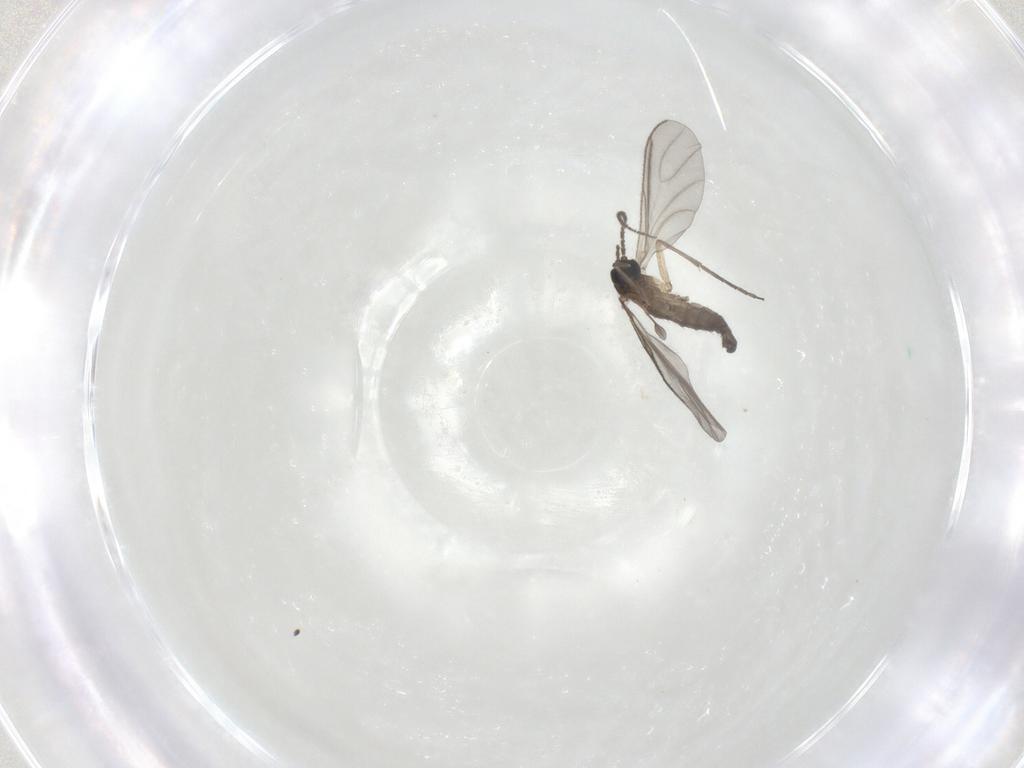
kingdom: Animalia
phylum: Arthropoda
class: Insecta
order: Diptera
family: Sciaridae
